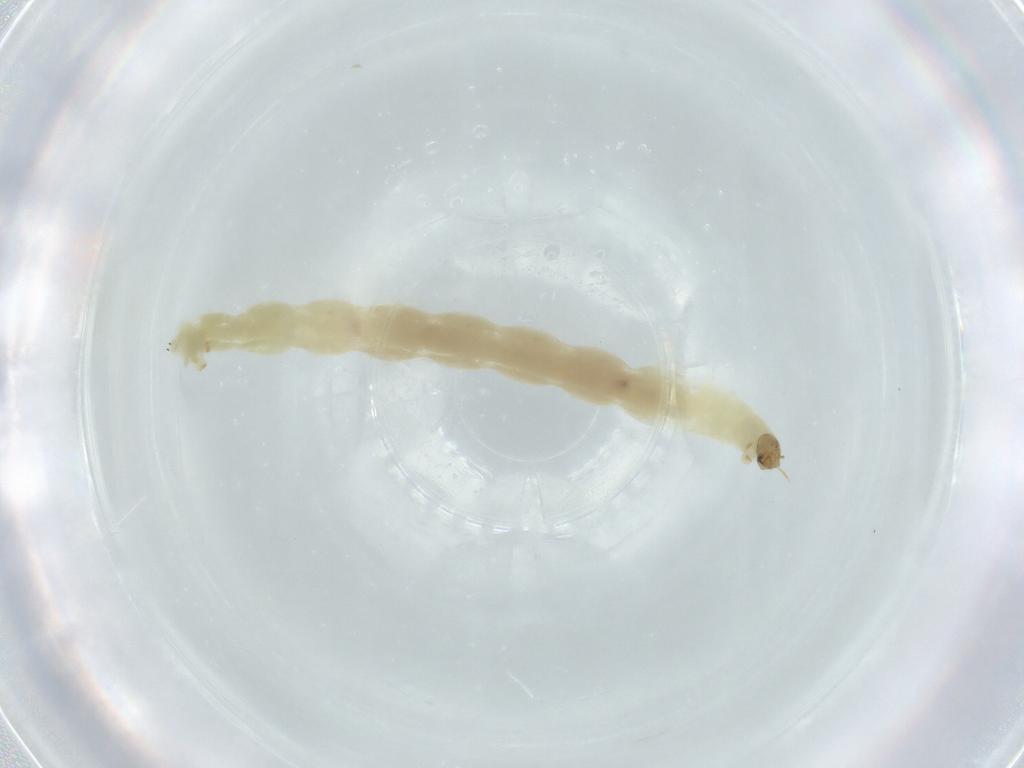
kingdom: Animalia
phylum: Arthropoda
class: Insecta
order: Diptera
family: Chironomidae
